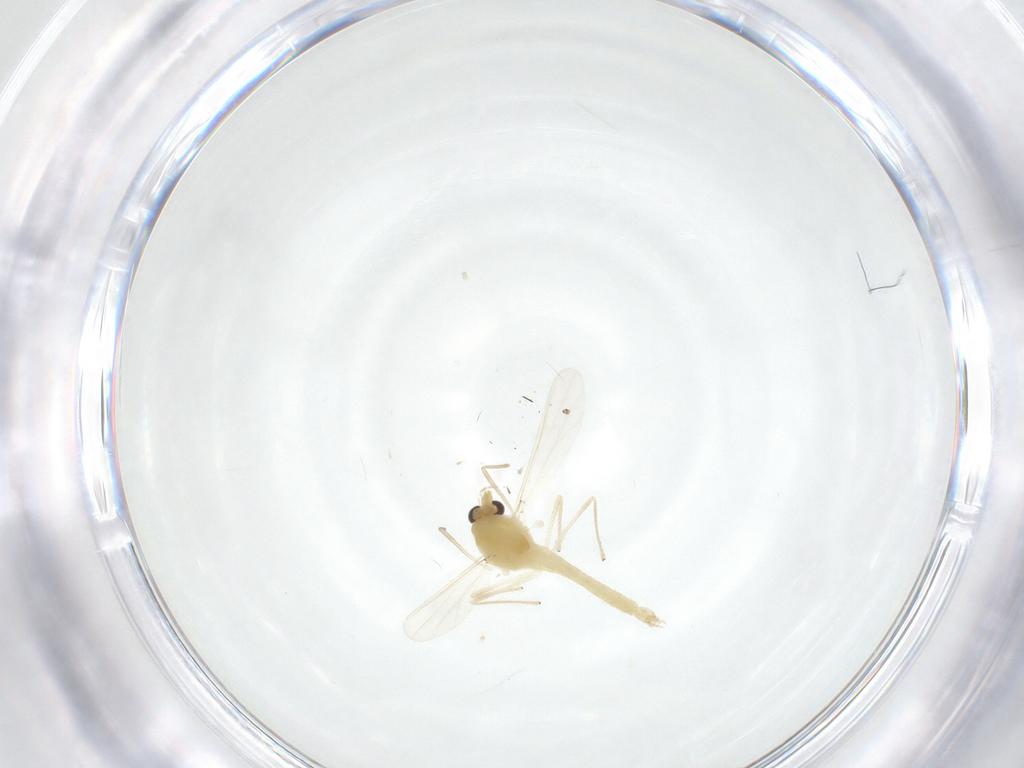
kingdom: Animalia
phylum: Arthropoda
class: Insecta
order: Diptera
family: Chironomidae
